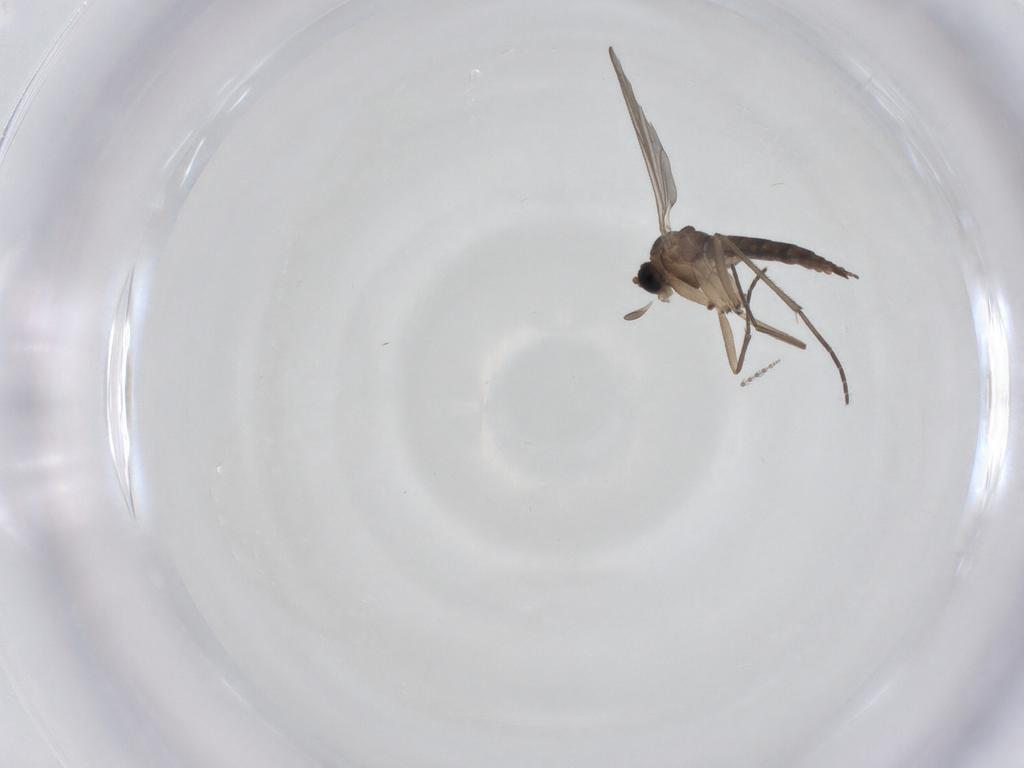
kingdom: Animalia
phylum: Arthropoda
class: Insecta
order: Diptera
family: Sciaridae
